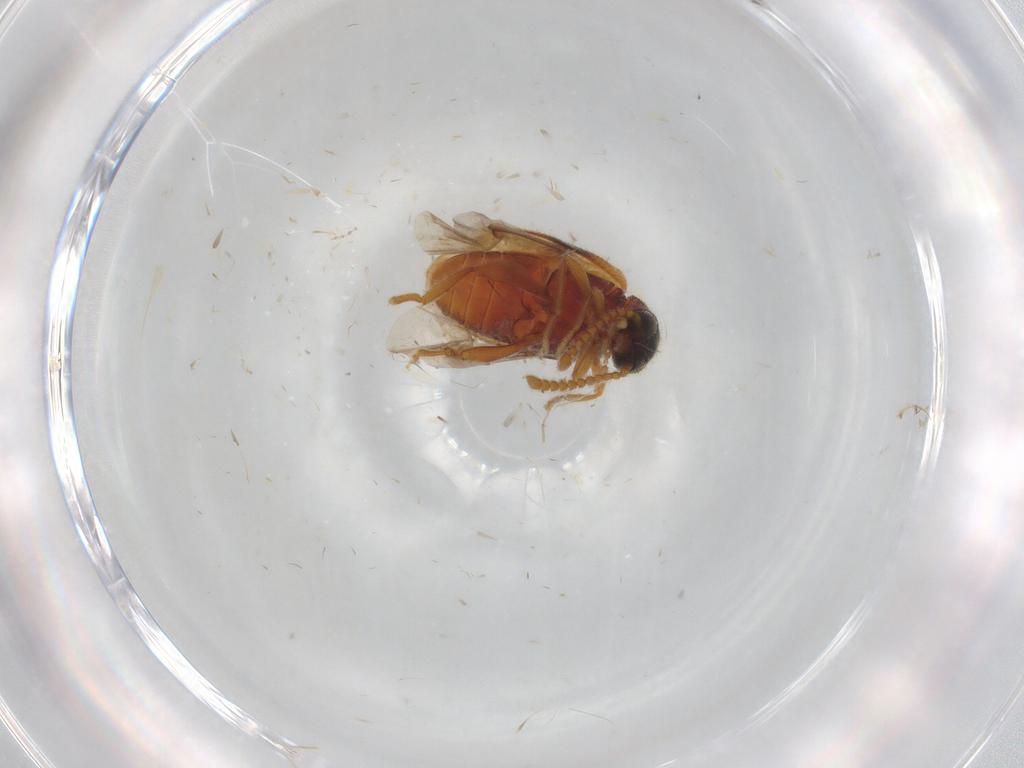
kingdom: Animalia
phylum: Arthropoda
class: Insecta
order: Coleoptera
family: Aderidae
